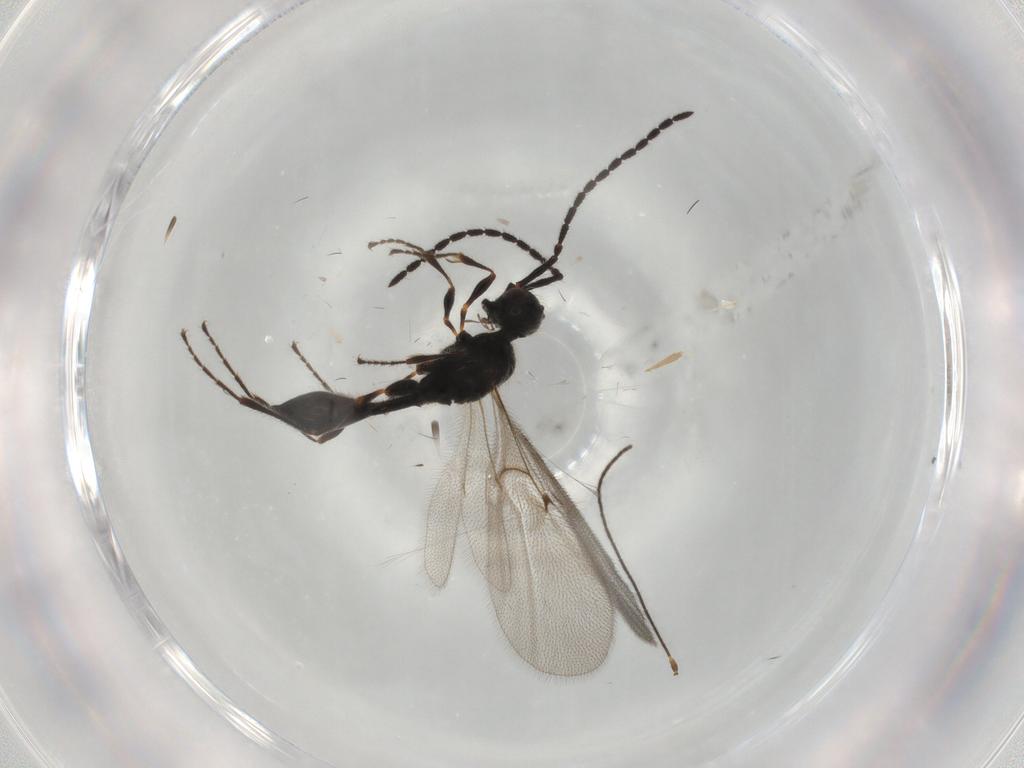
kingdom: Animalia
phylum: Arthropoda
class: Insecta
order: Hymenoptera
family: Diapriidae
